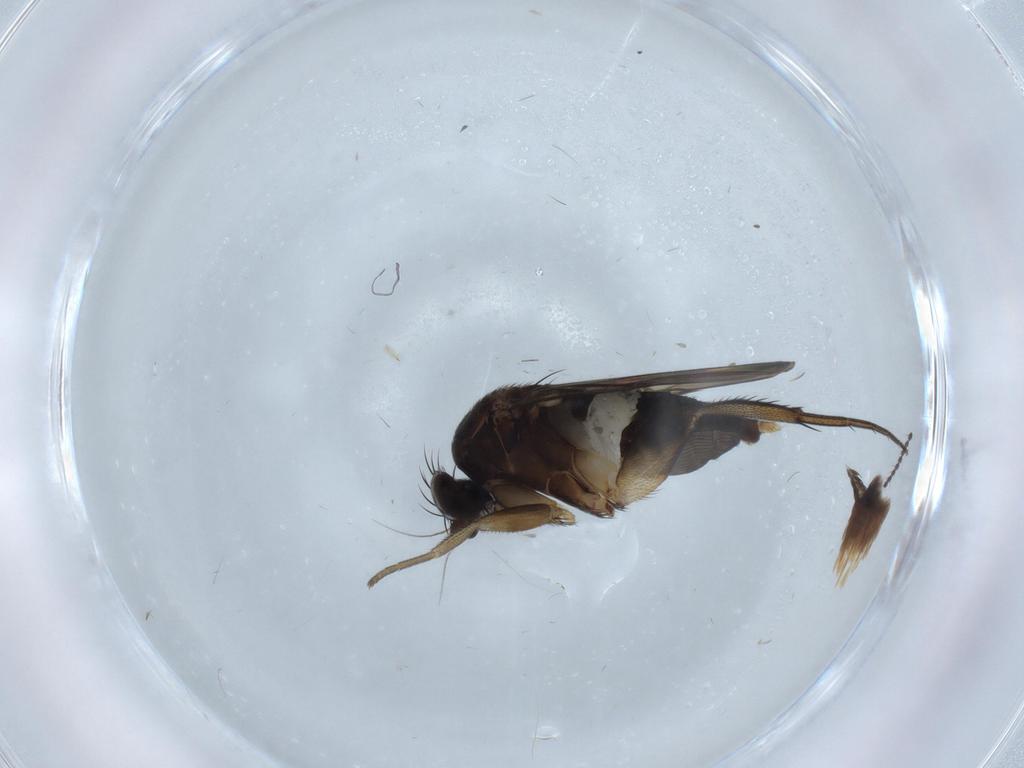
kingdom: Animalia
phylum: Arthropoda
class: Insecta
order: Diptera
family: Phoridae
